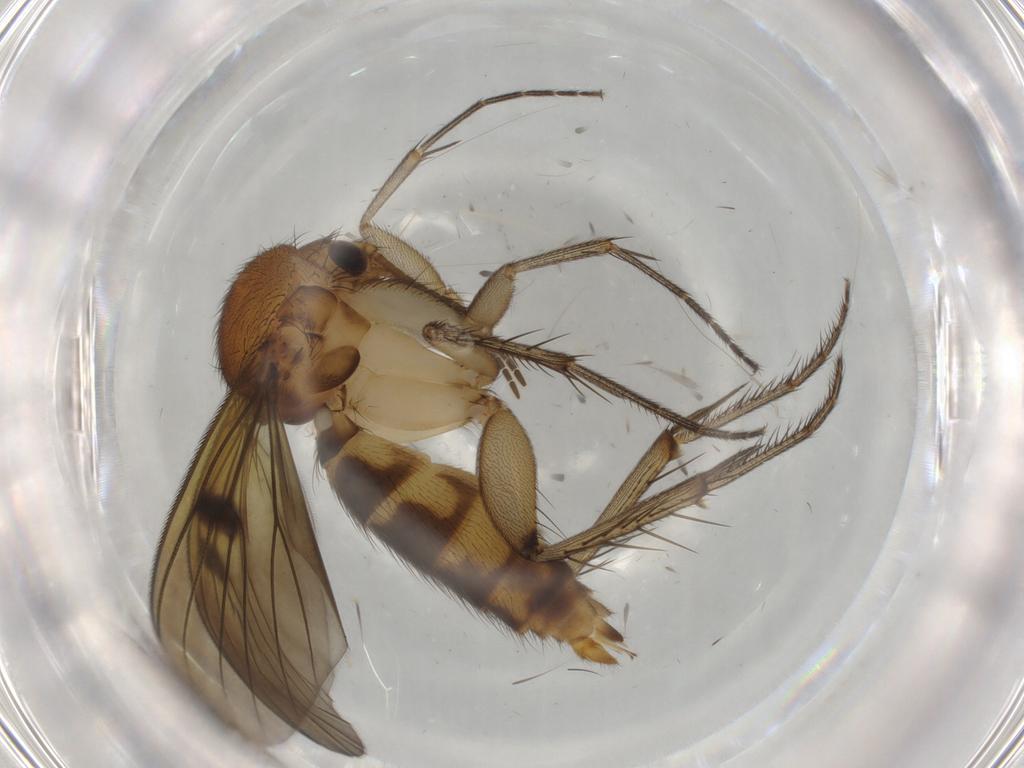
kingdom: Animalia
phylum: Arthropoda
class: Insecta
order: Diptera
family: Mycetophilidae
